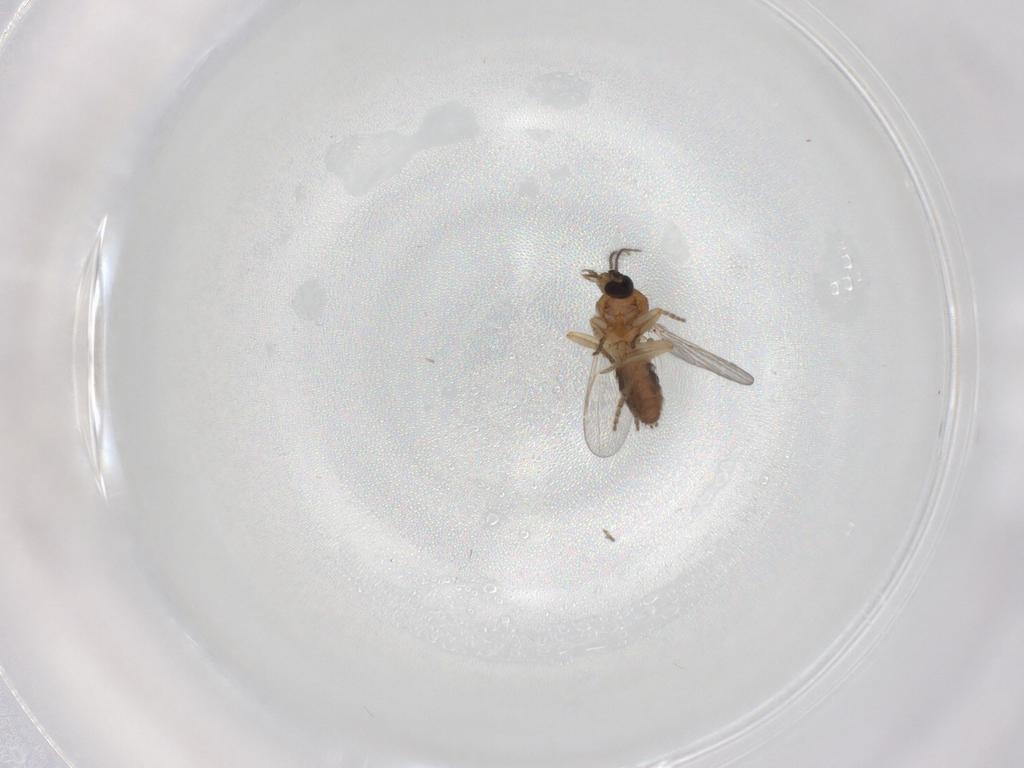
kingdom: Animalia
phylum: Arthropoda
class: Insecta
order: Diptera
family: Ceratopogonidae
